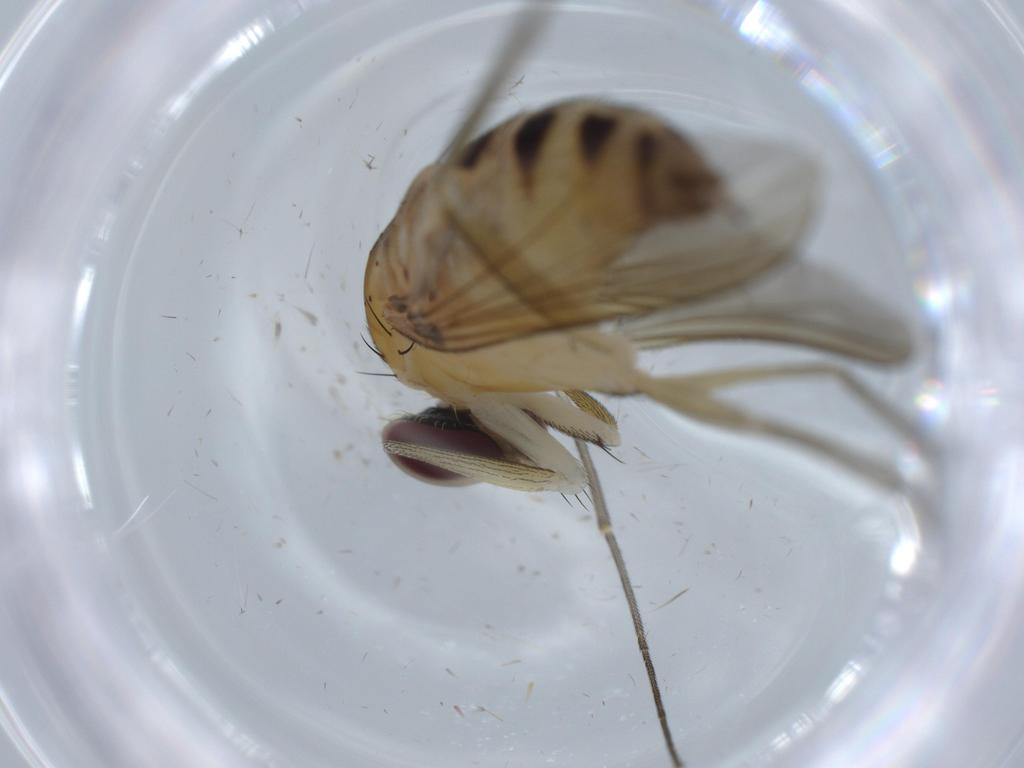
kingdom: Animalia
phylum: Arthropoda
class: Insecta
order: Diptera
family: Dolichopodidae
